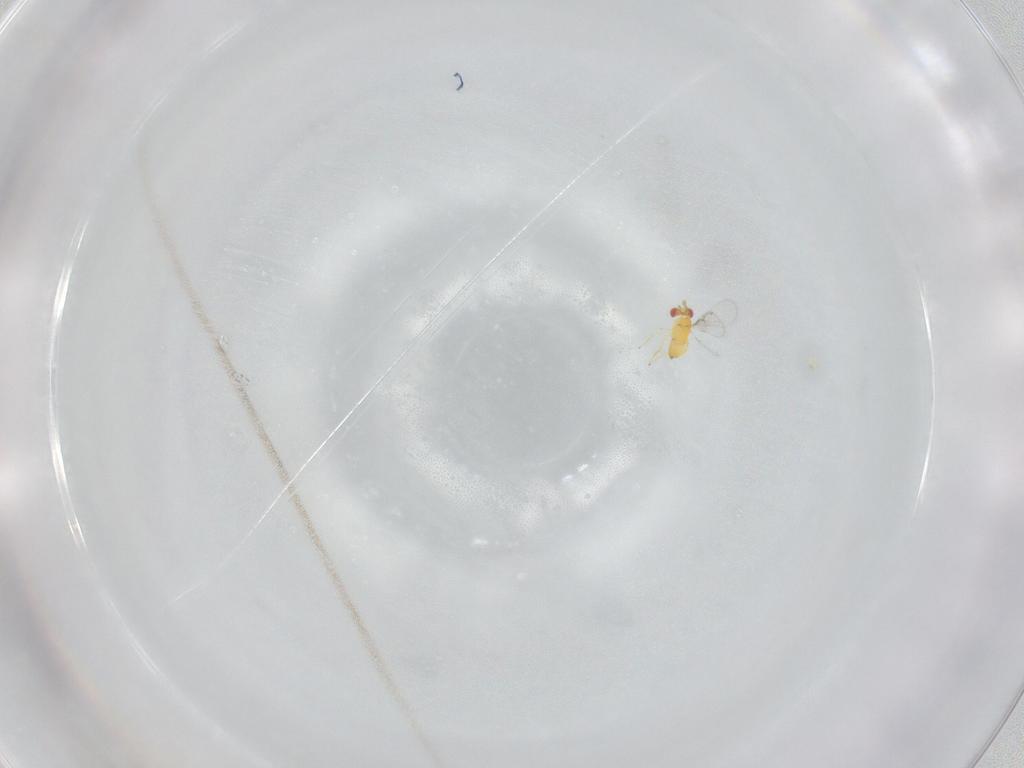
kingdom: Animalia
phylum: Arthropoda
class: Insecta
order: Hymenoptera
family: Trichogrammatidae
